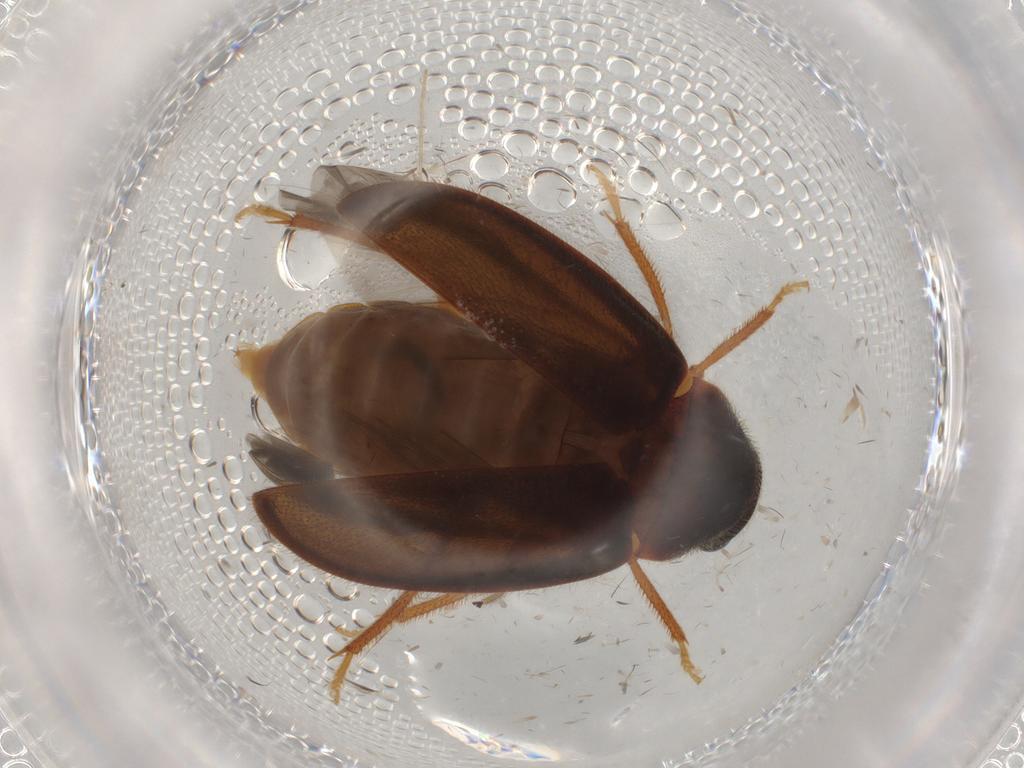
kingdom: Animalia
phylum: Arthropoda
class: Insecta
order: Coleoptera
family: Ptilodactylidae
